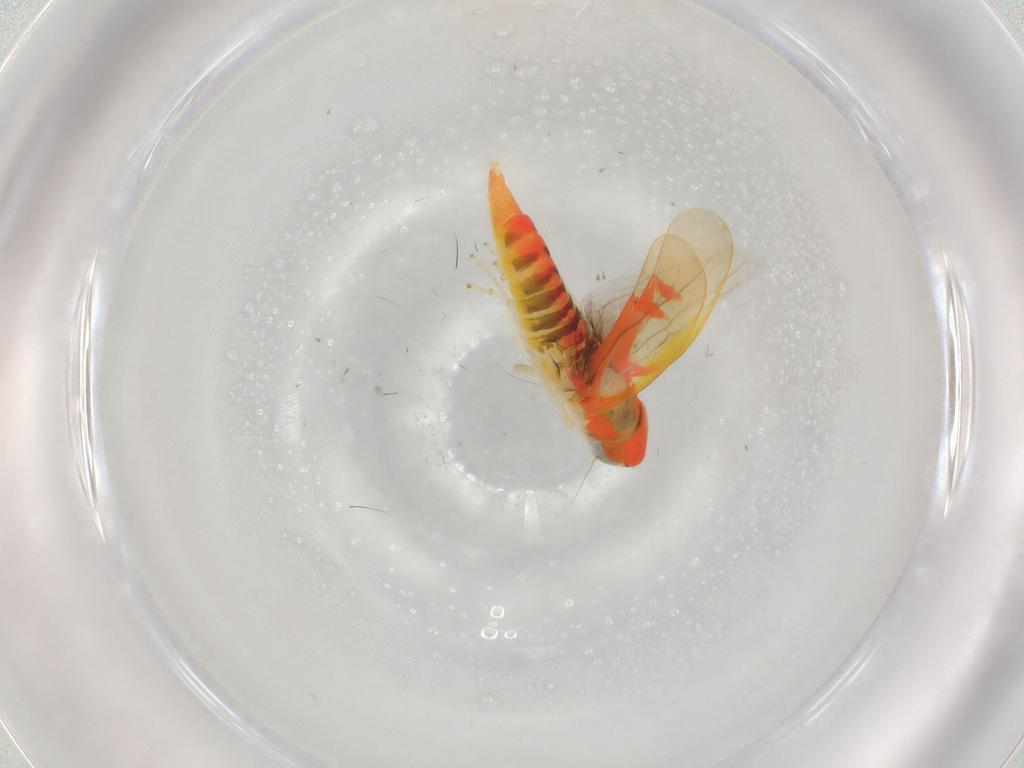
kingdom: Animalia
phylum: Arthropoda
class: Insecta
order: Hemiptera
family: Cicadellidae
